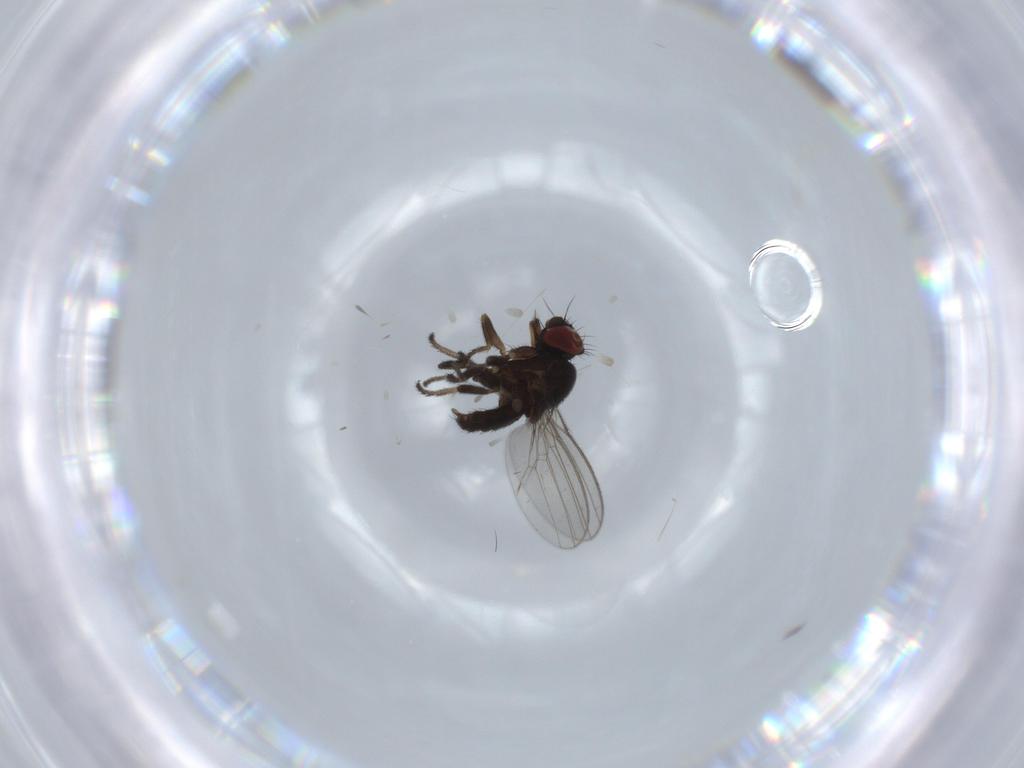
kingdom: Animalia
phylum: Arthropoda
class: Insecta
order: Diptera
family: Milichiidae
